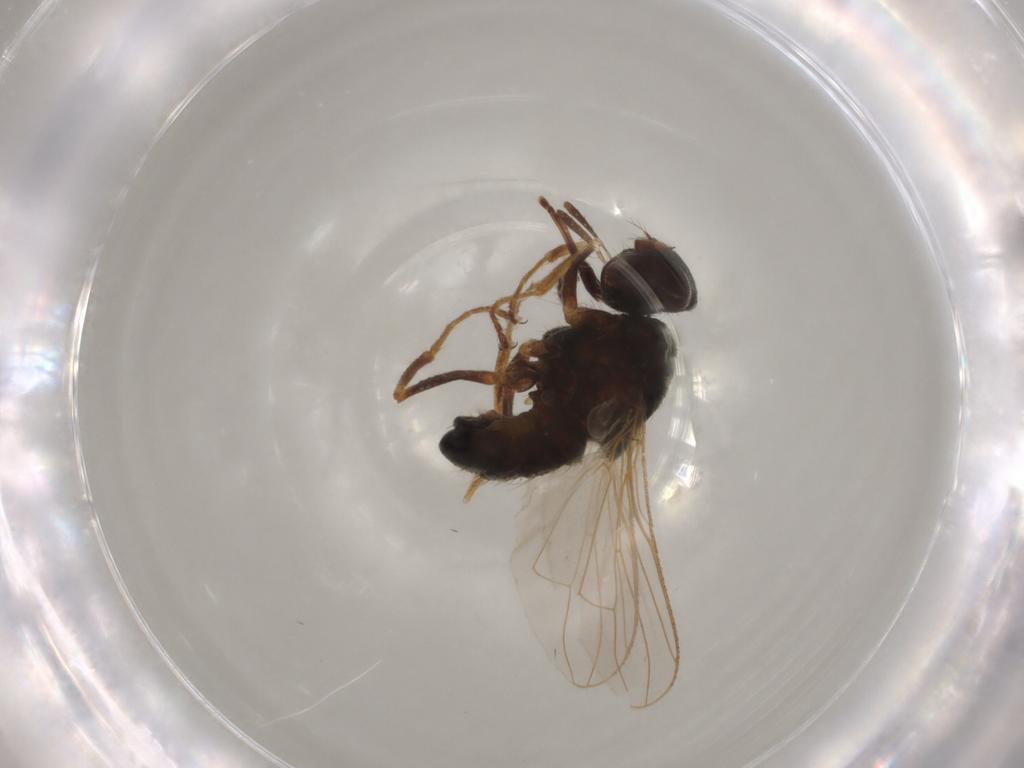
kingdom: Animalia
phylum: Arthropoda
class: Insecta
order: Diptera
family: Muscidae
